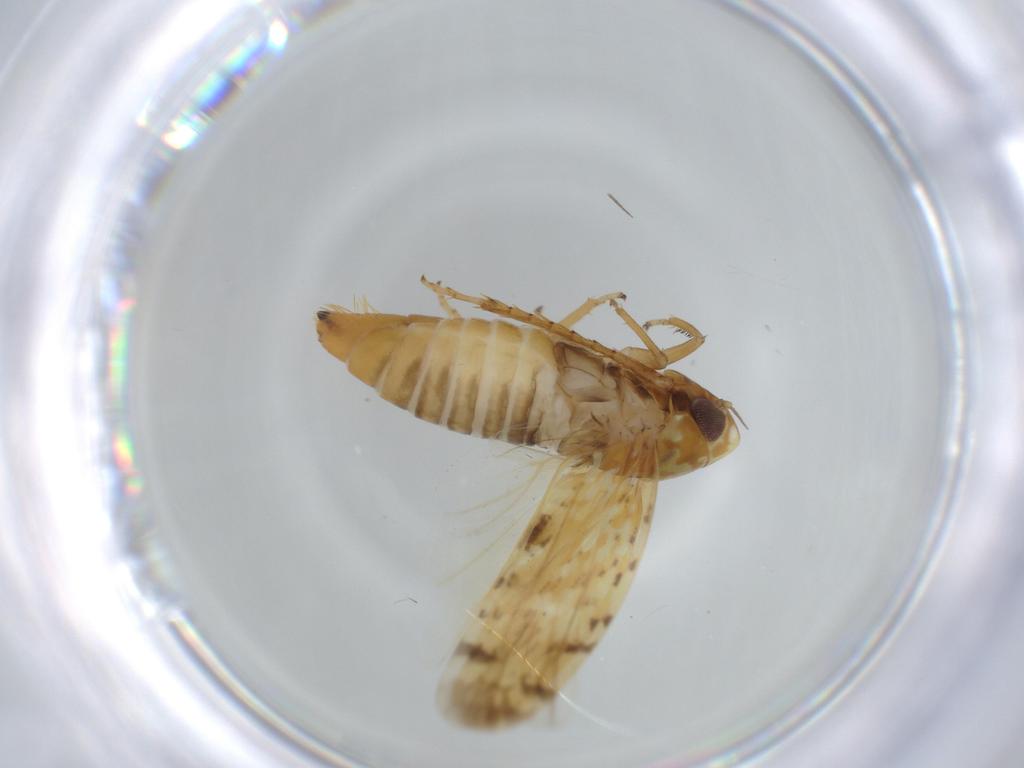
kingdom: Animalia
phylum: Arthropoda
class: Insecta
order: Hemiptera
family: Cicadellidae
